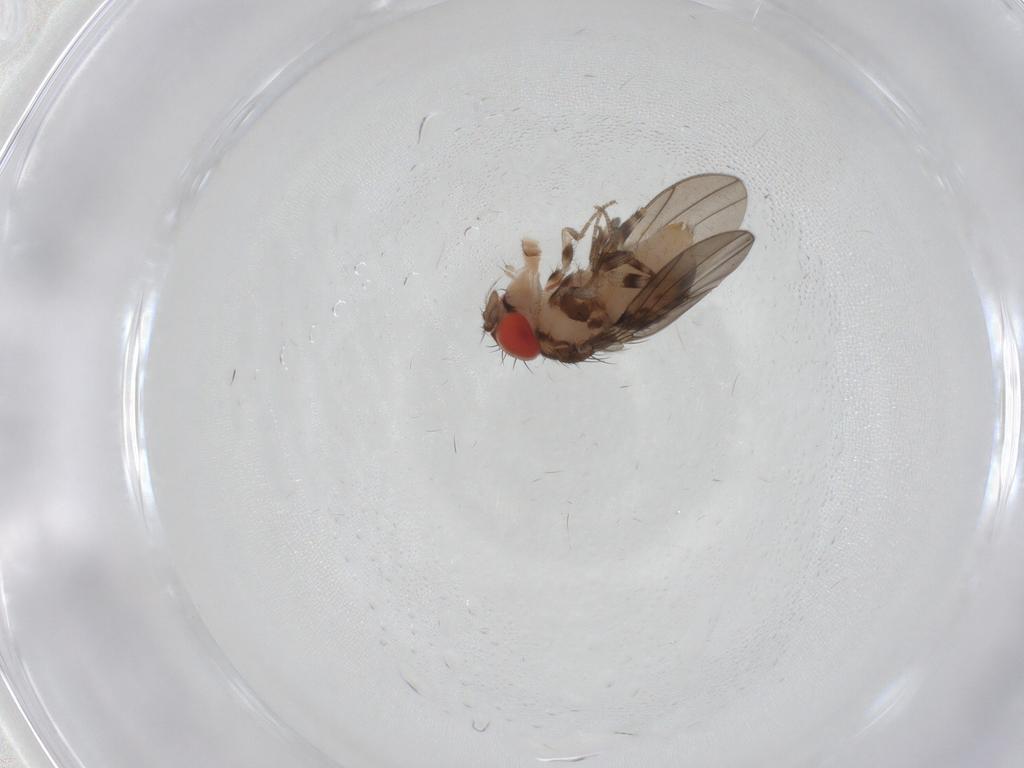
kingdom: Animalia
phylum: Arthropoda
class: Insecta
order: Diptera
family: Drosophilidae
